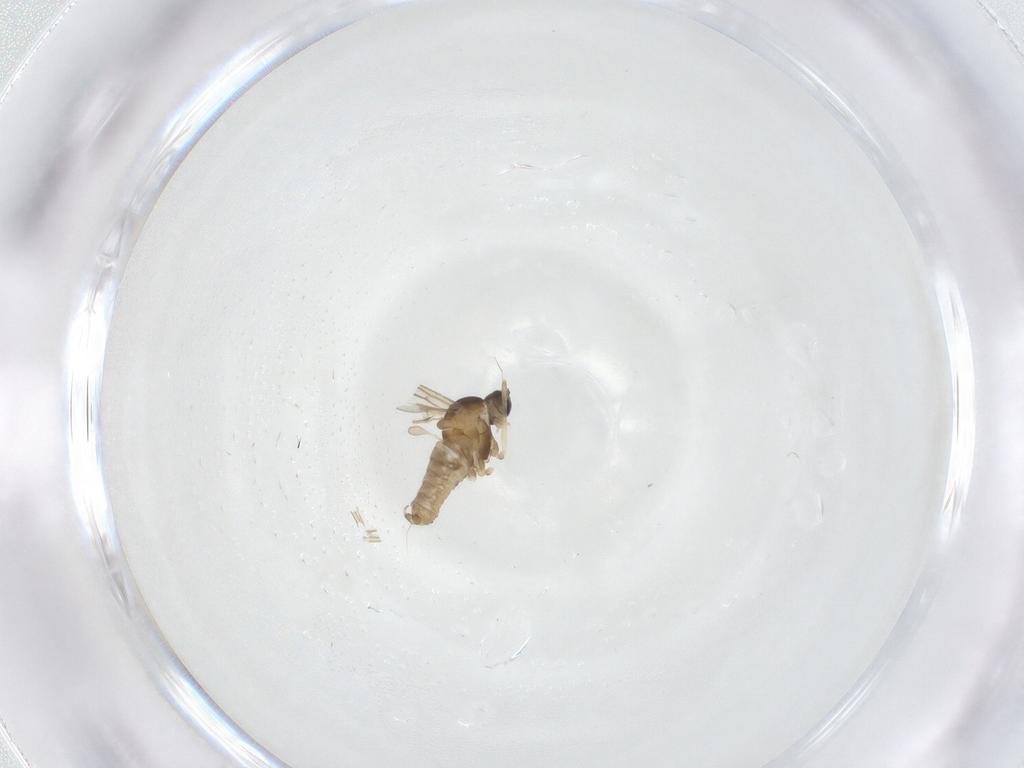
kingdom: Animalia
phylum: Arthropoda
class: Insecta
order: Diptera
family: Cecidomyiidae
